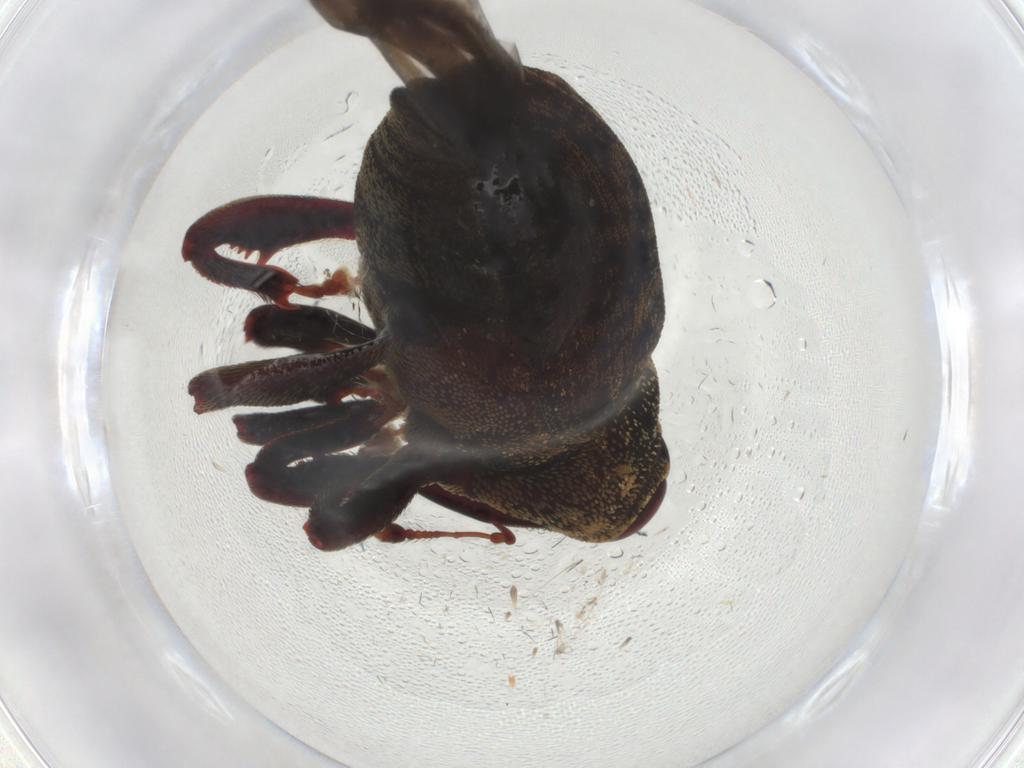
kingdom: Animalia
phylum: Arthropoda
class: Insecta
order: Coleoptera
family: Curculionidae
